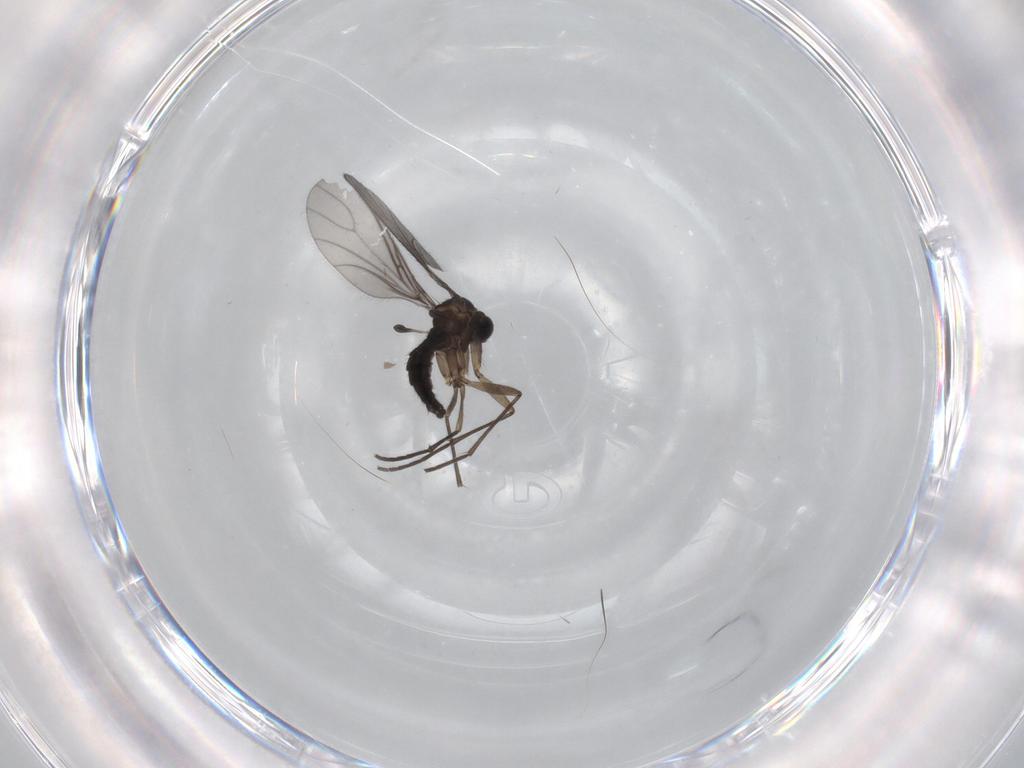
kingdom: Animalia
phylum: Arthropoda
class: Insecta
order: Diptera
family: Sciaridae
